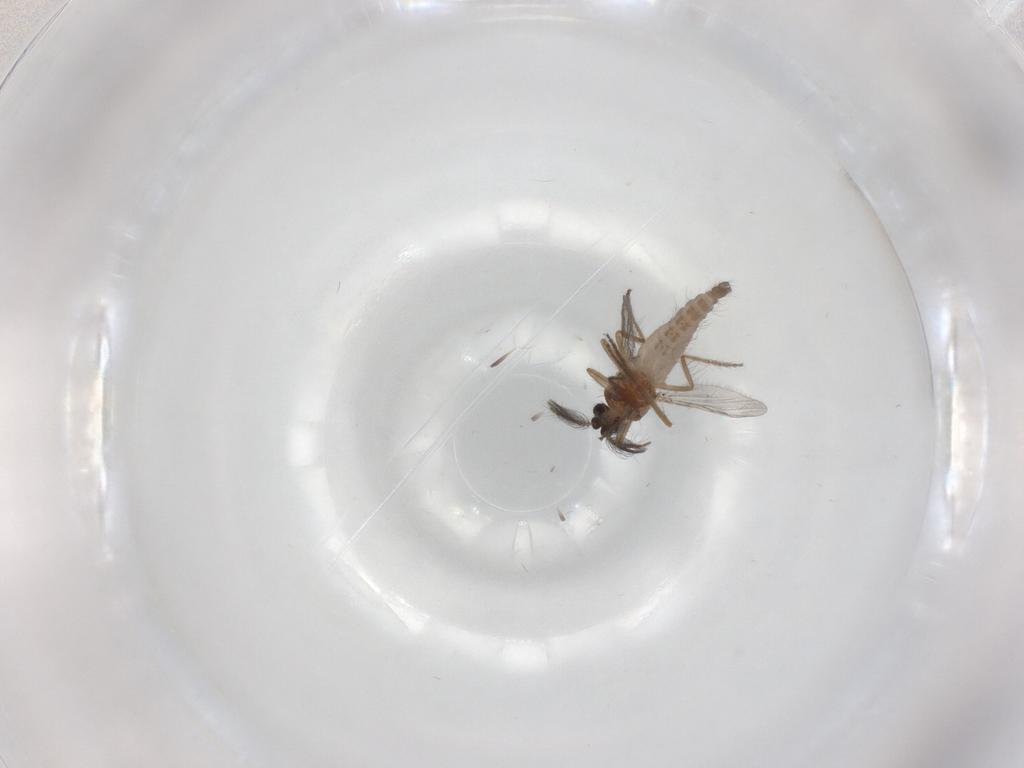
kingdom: Animalia
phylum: Arthropoda
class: Insecta
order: Diptera
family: Ceratopogonidae
